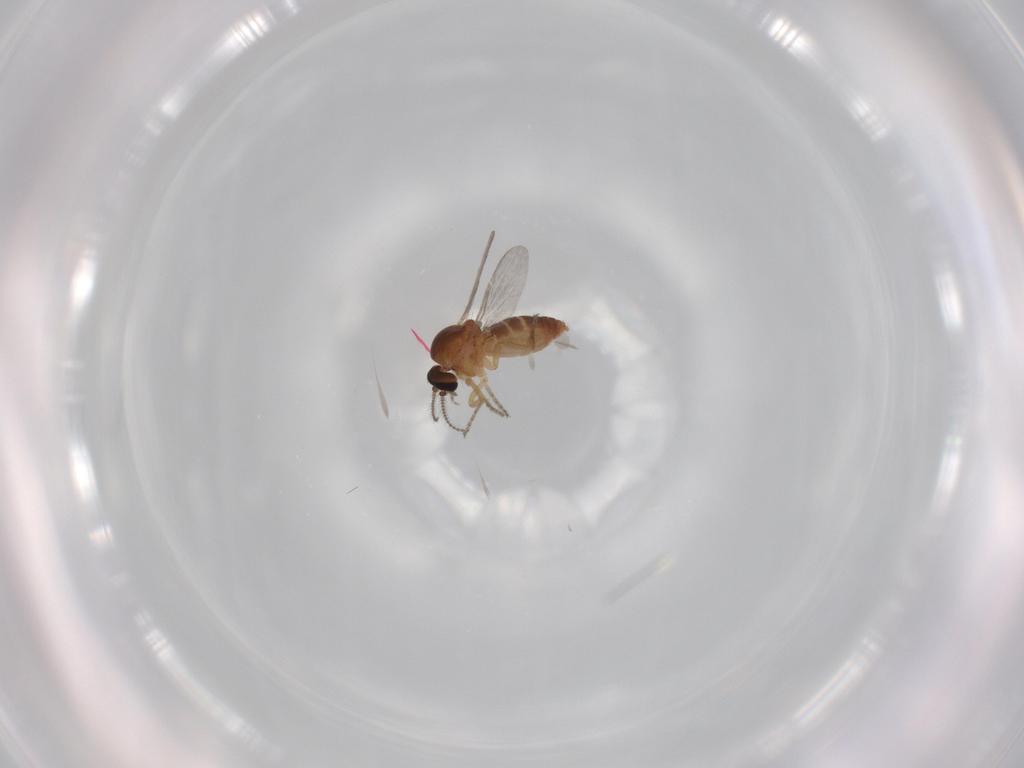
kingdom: Animalia
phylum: Arthropoda
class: Insecta
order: Diptera
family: Ceratopogonidae
